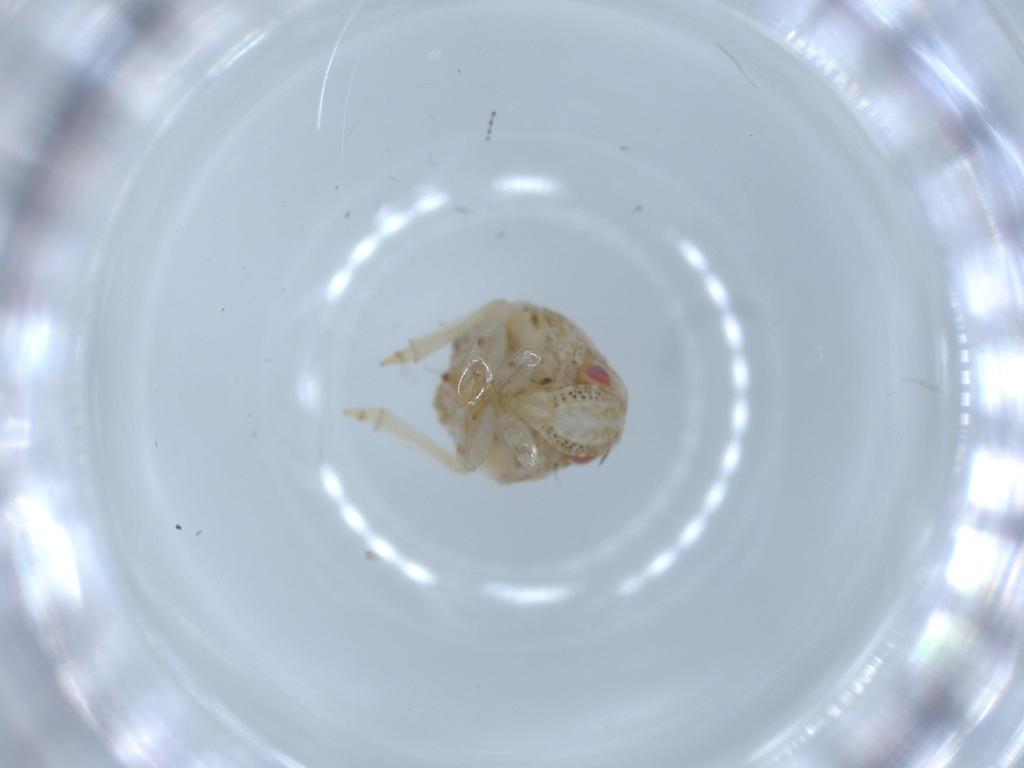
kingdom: Animalia
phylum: Arthropoda
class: Insecta
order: Hemiptera
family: Acanaloniidae
